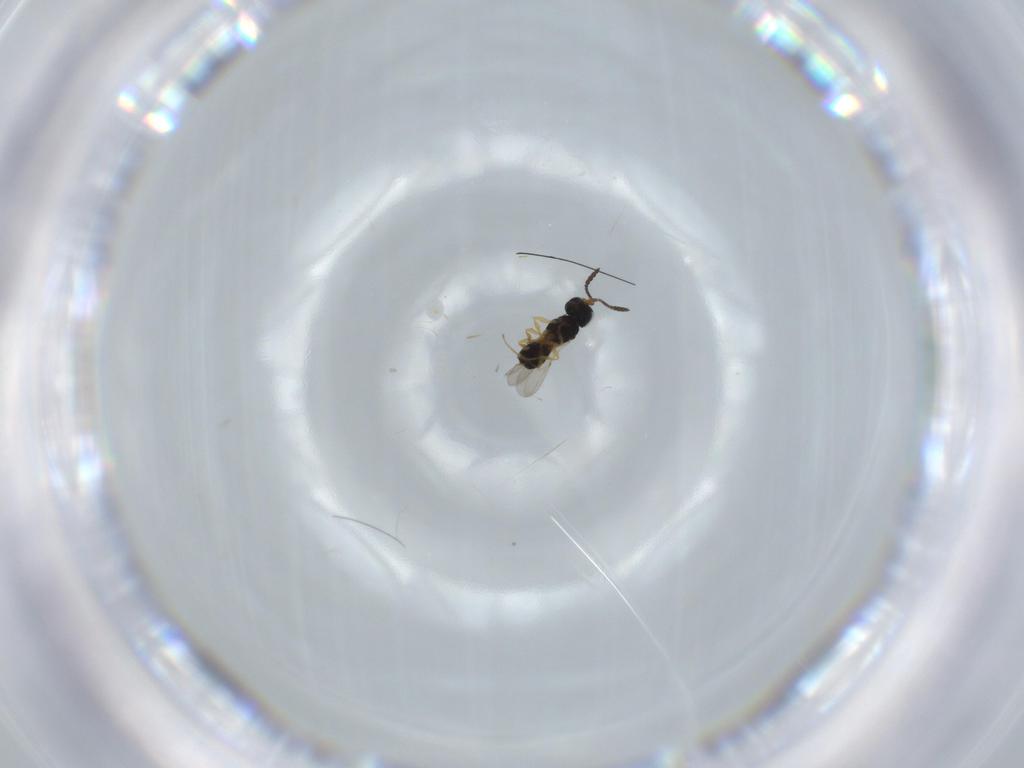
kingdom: Animalia
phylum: Arthropoda
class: Insecta
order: Hymenoptera
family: Scelionidae
